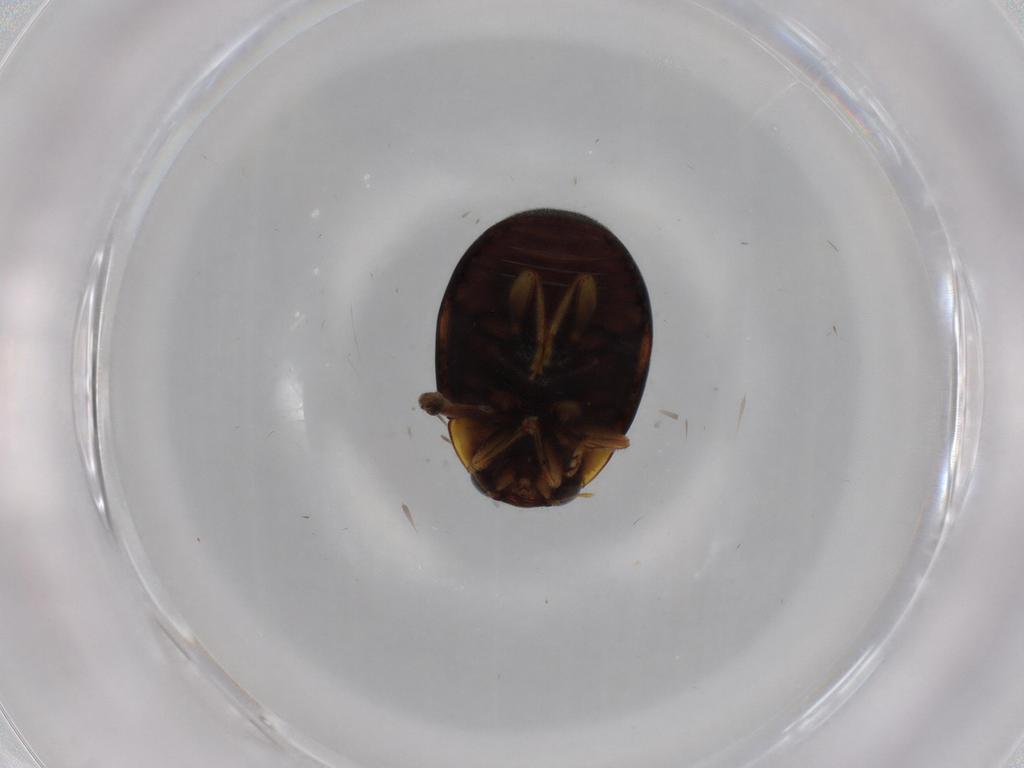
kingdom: Animalia
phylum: Arthropoda
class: Insecta
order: Coleoptera
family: Coccinellidae
